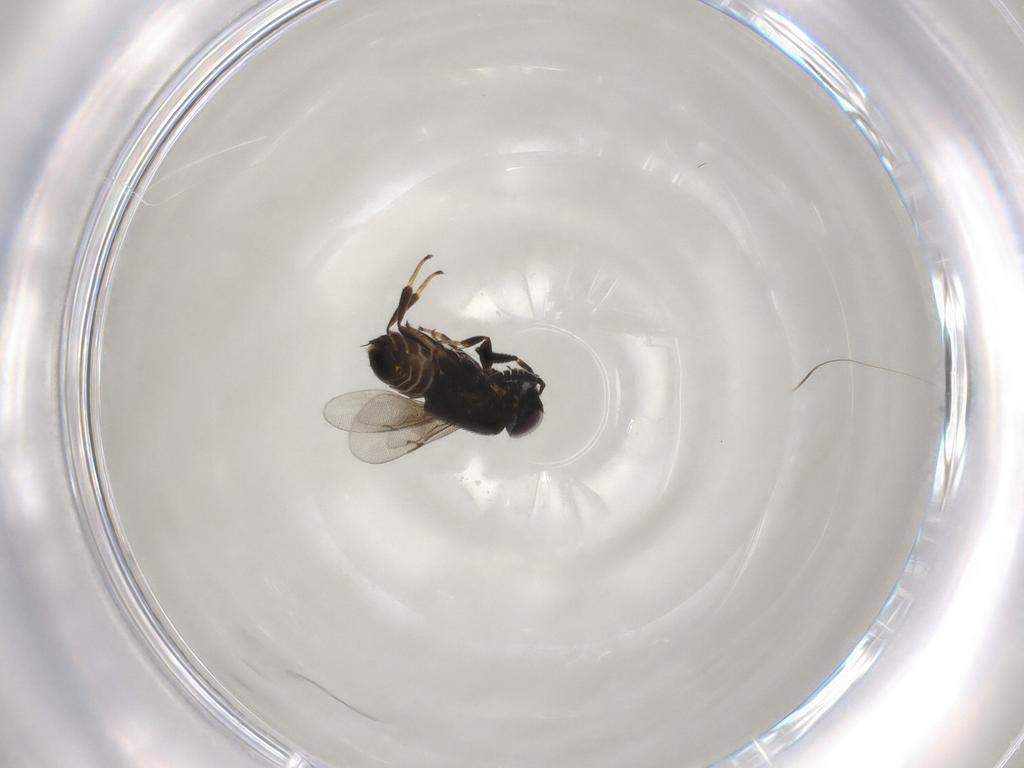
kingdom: Animalia
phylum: Arthropoda
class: Insecta
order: Hymenoptera
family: Encyrtidae
